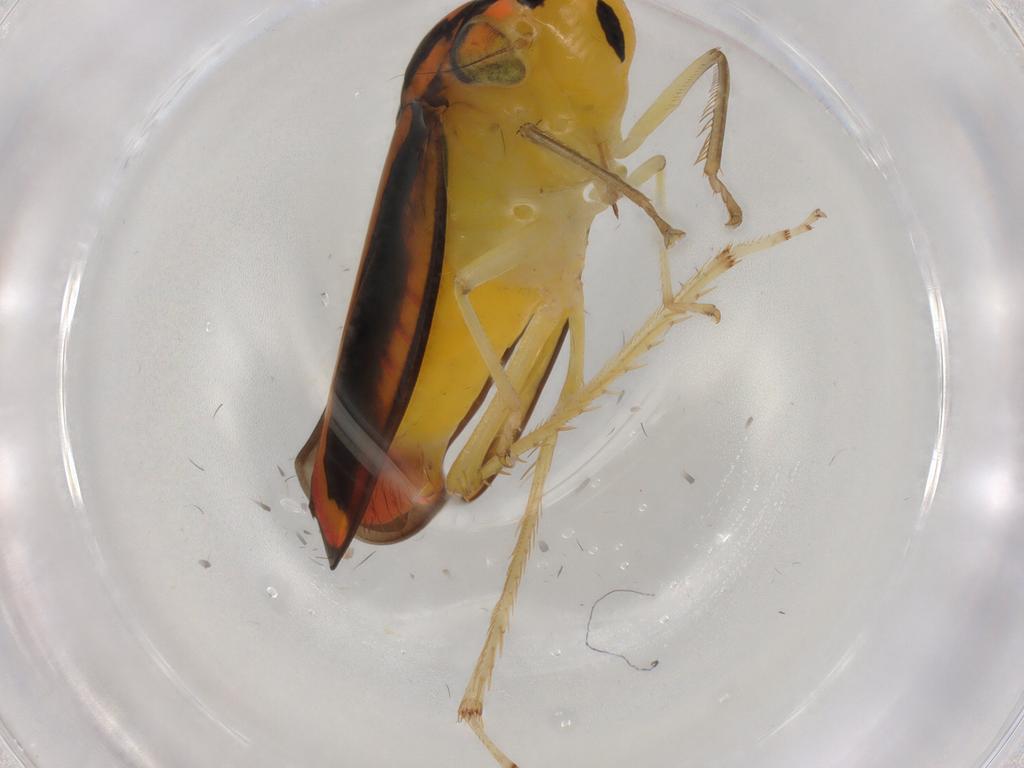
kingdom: Animalia
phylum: Arthropoda
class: Insecta
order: Hemiptera
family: Cicadellidae
